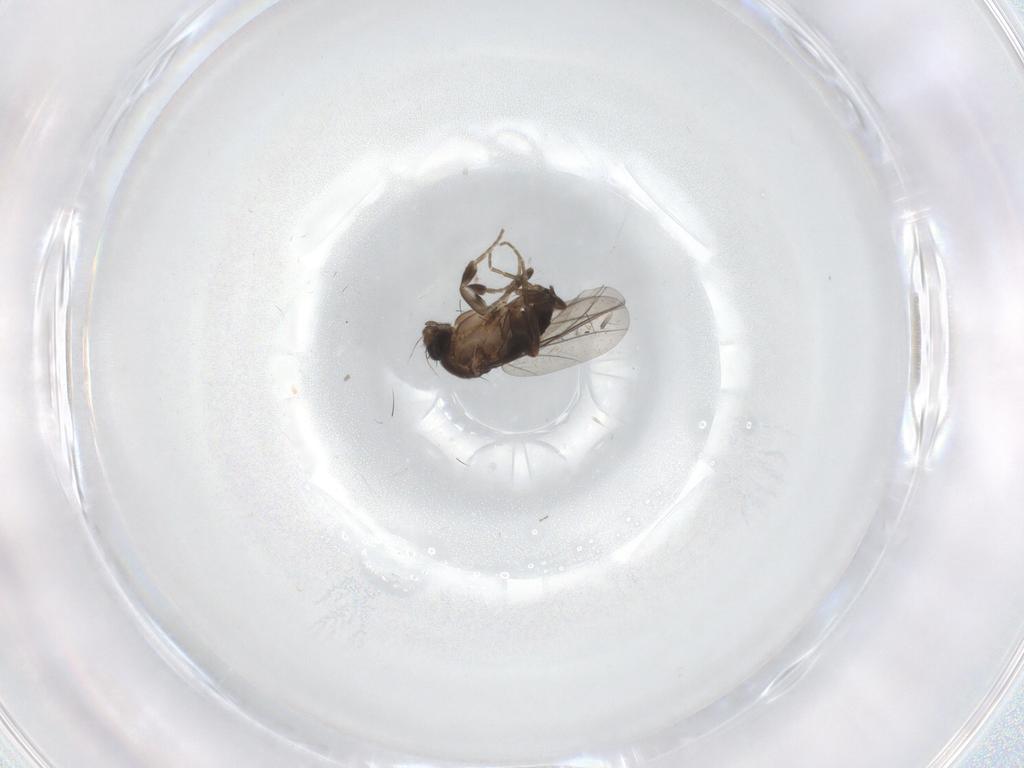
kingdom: Animalia
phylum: Arthropoda
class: Insecta
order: Diptera
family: Phoridae
